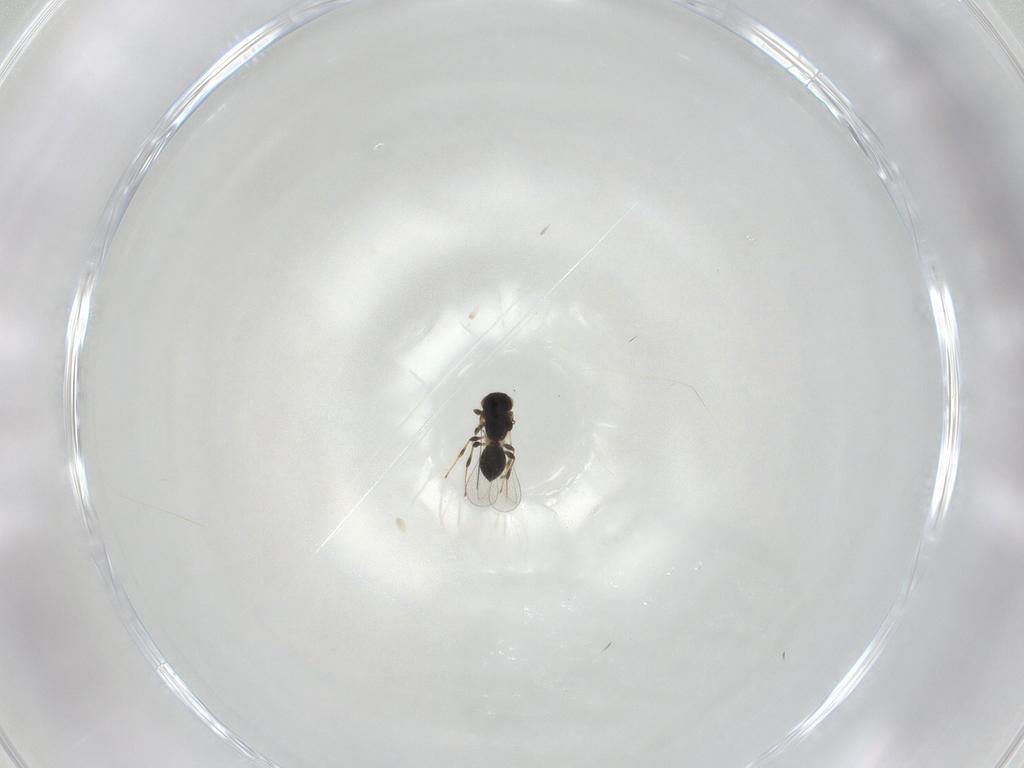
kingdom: Animalia
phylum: Arthropoda
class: Insecta
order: Hymenoptera
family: Platygastridae
